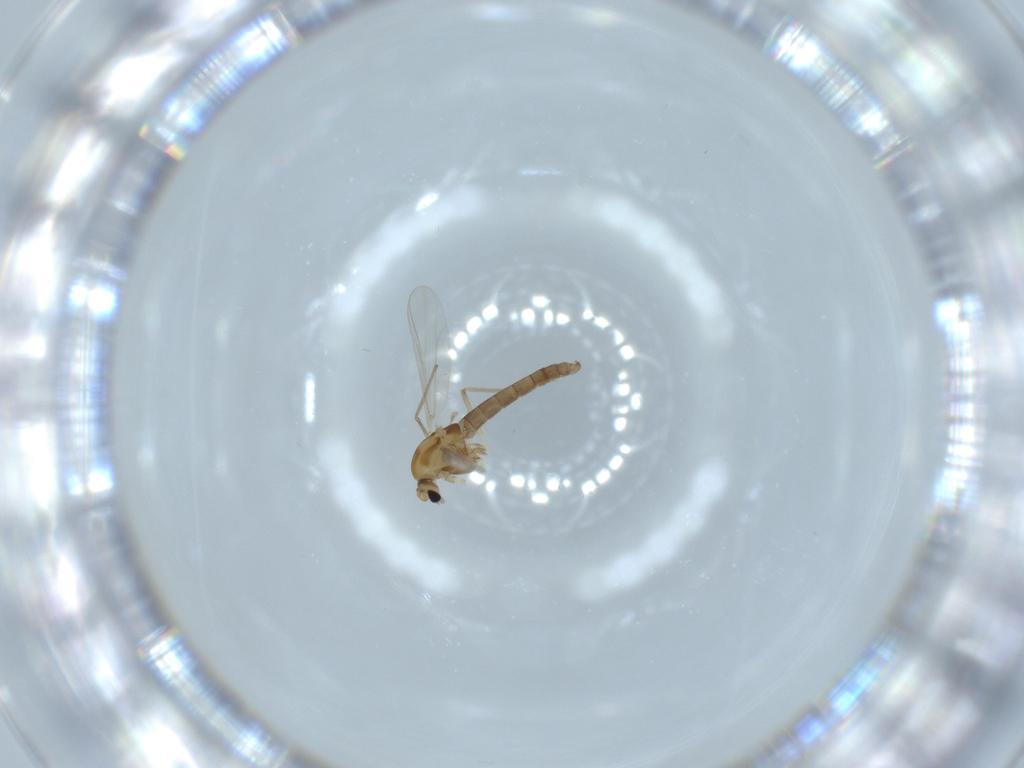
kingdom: Animalia
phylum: Arthropoda
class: Insecta
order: Diptera
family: Chironomidae
